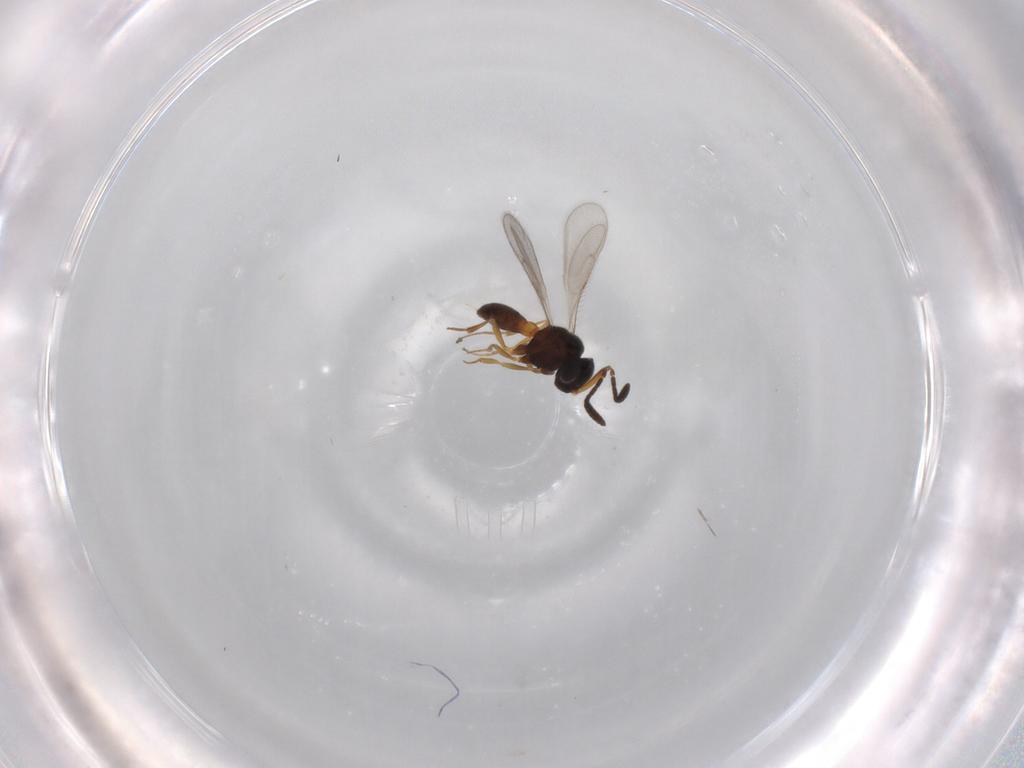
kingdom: Animalia
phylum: Arthropoda
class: Insecta
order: Hymenoptera
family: Scelionidae
